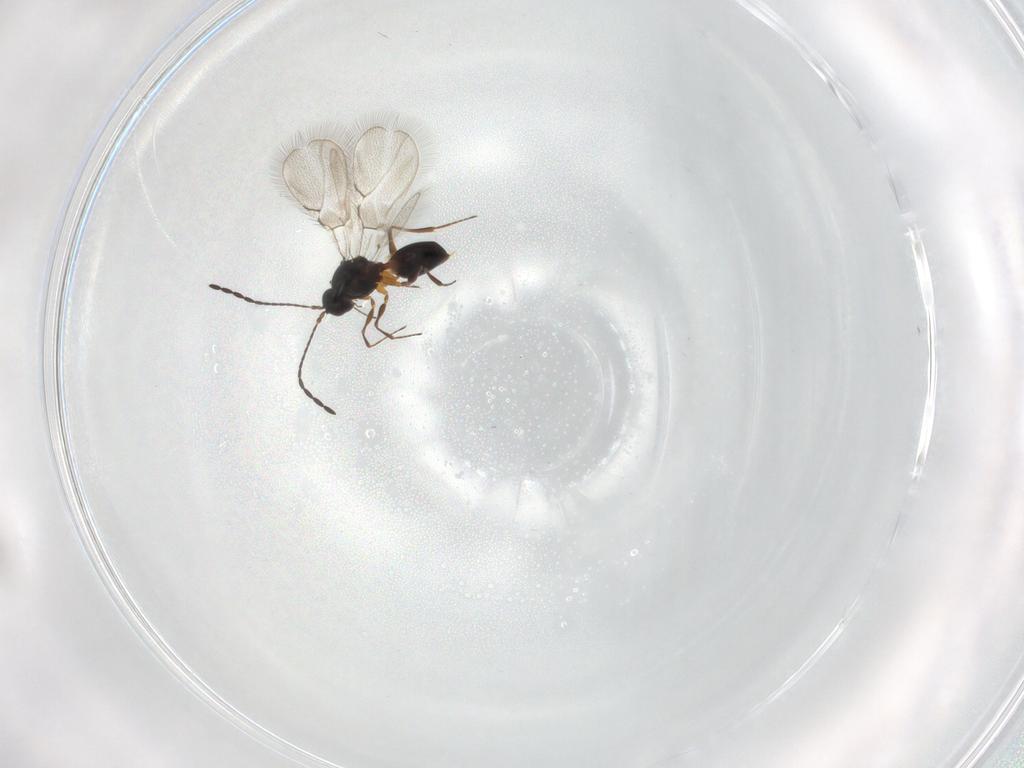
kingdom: Animalia
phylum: Arthropoda
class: Insecta
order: Hymenoptera
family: Figitidae
